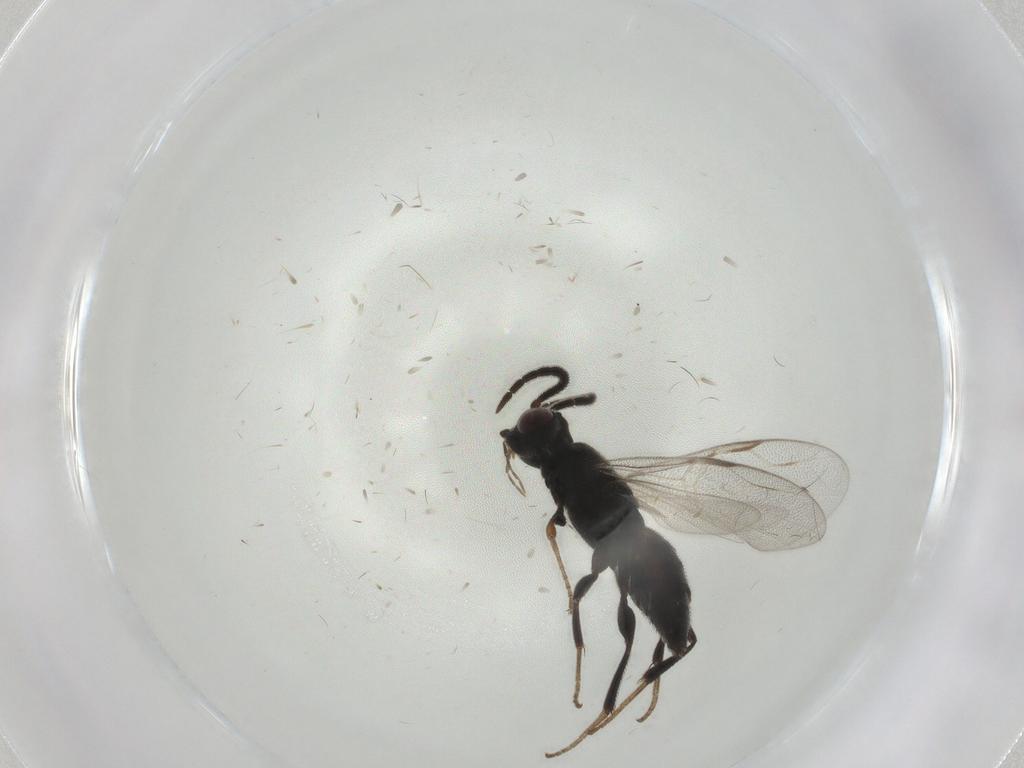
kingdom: Animalia
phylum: Arthropoda
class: Insecta
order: Hymenoptera
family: Dryinidae
